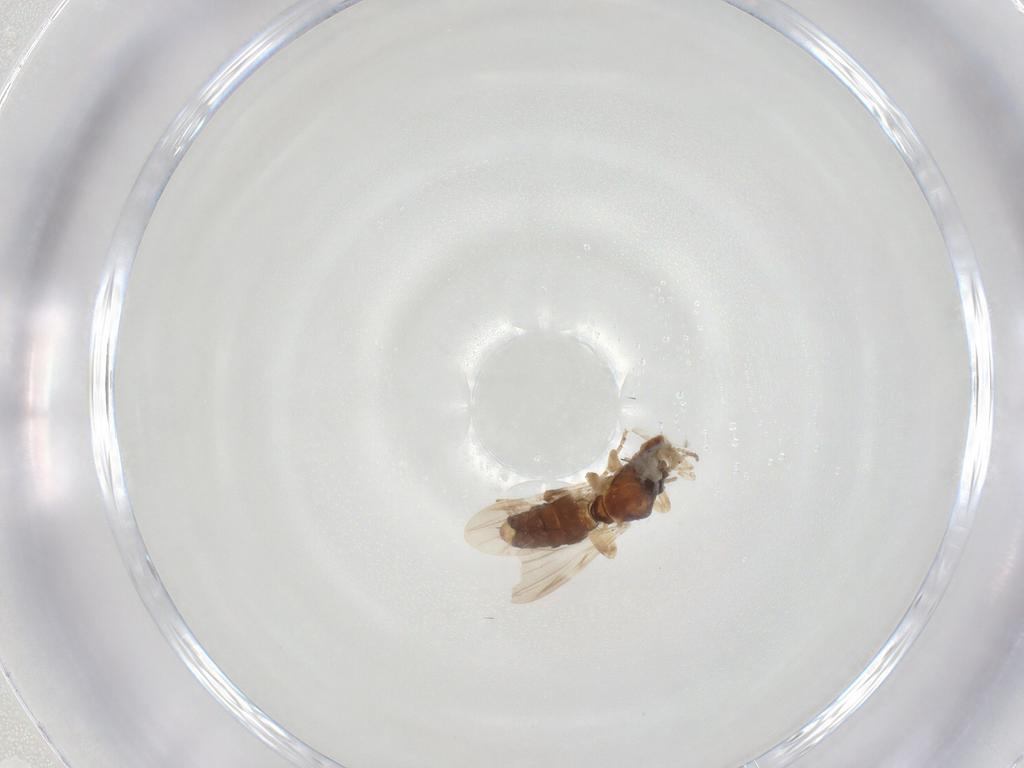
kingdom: Animalia
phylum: Arthropoda
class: Insecta
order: Diptera
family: Ceratopogonidae
